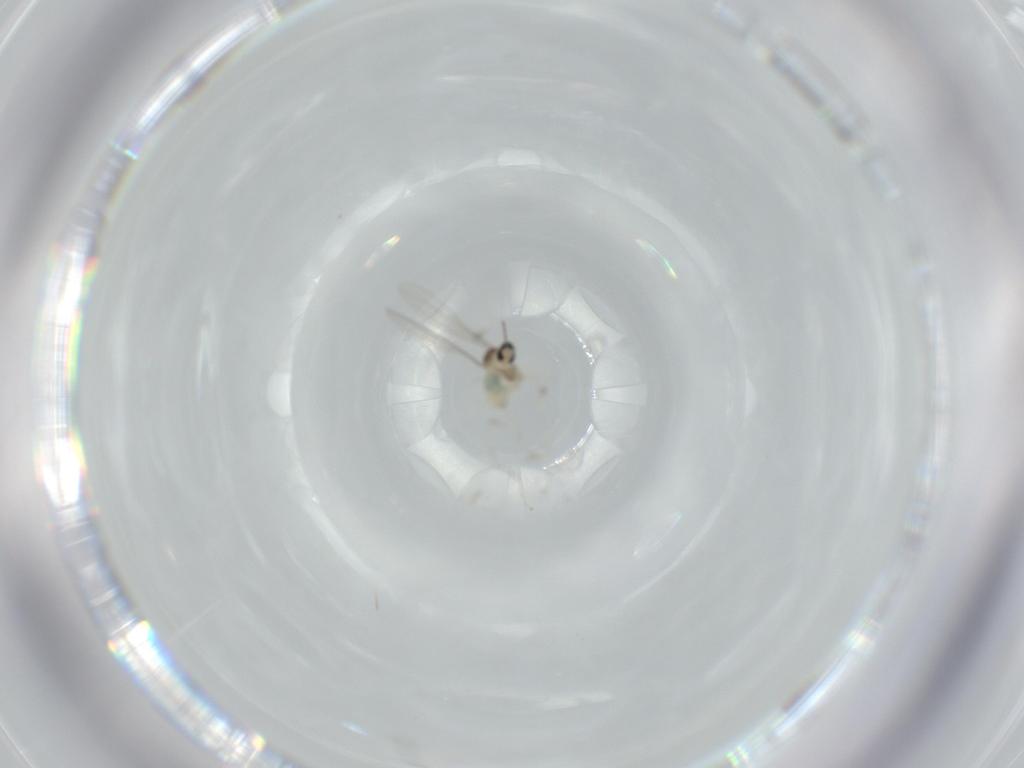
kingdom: Animalia
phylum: Arthropoda
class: Insecta
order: Diptera
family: Cecidomyiidae
